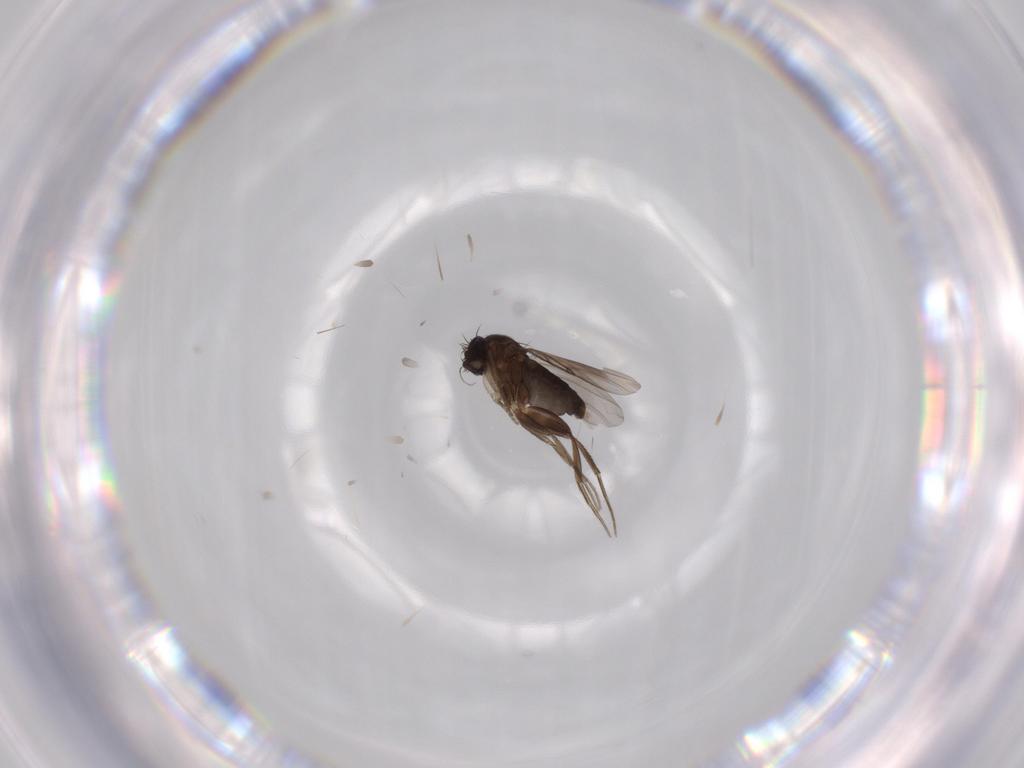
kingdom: Animalia
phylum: Arthropoda
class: Insecta
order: Diptera
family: Phoridae
